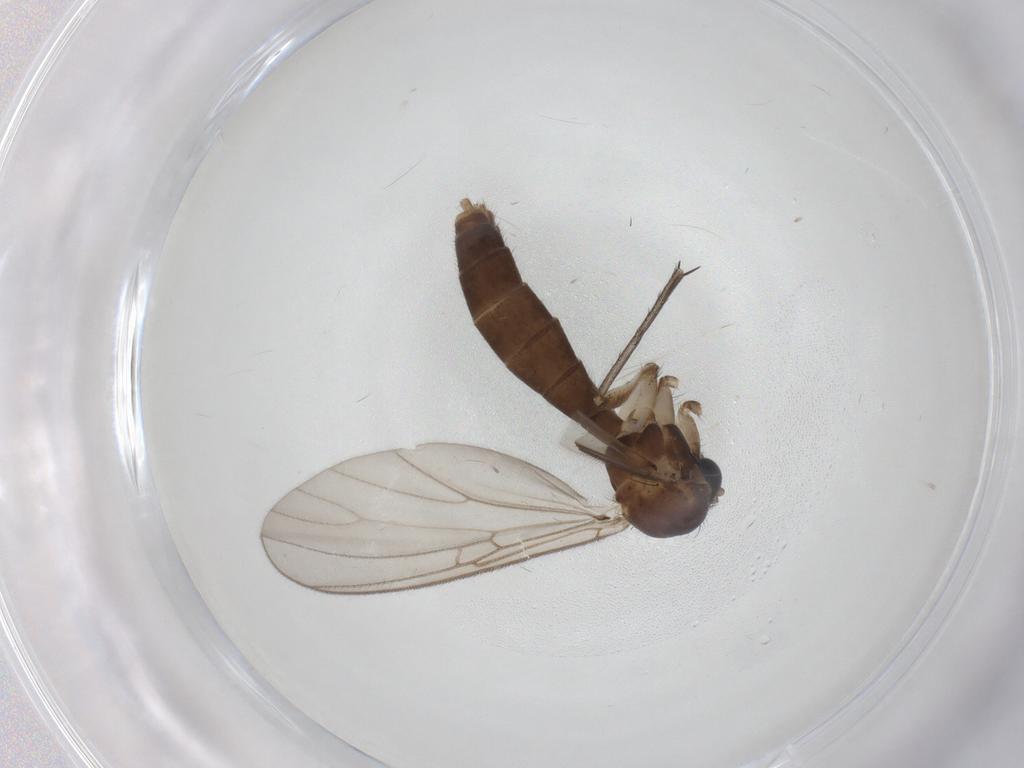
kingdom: Animalia
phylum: Arthropoda
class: Insecta
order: Diptera
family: Mycetophilidae
